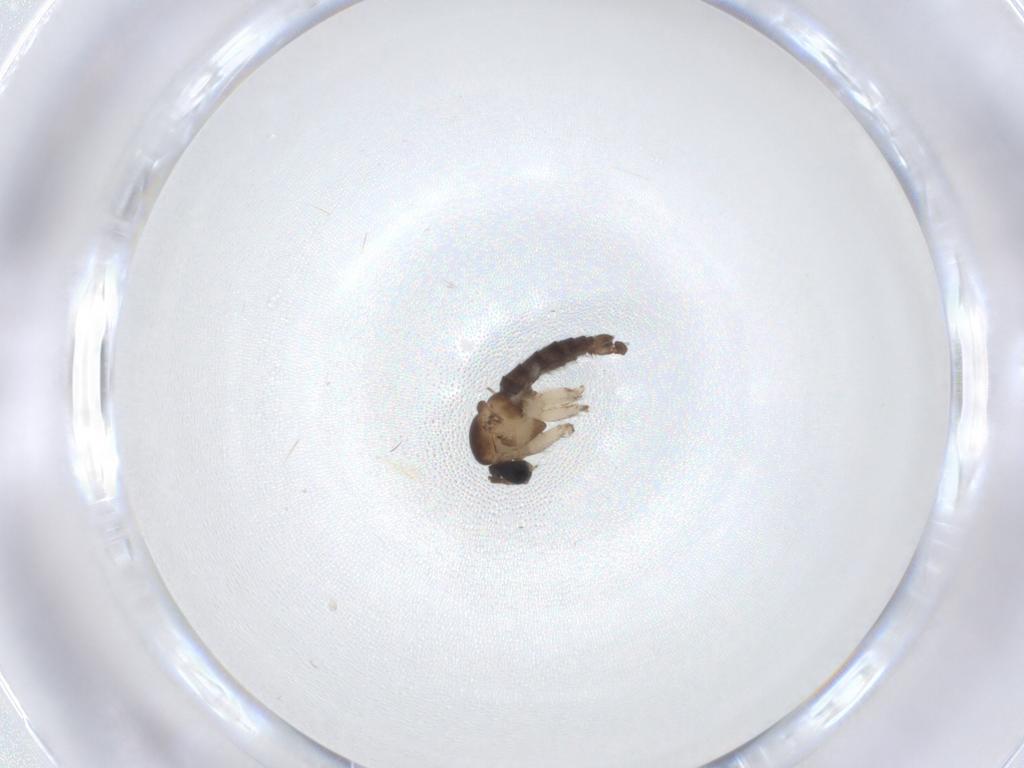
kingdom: Animalia
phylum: Arthropoda
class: Insecta
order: Diptera
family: Sciaridae
